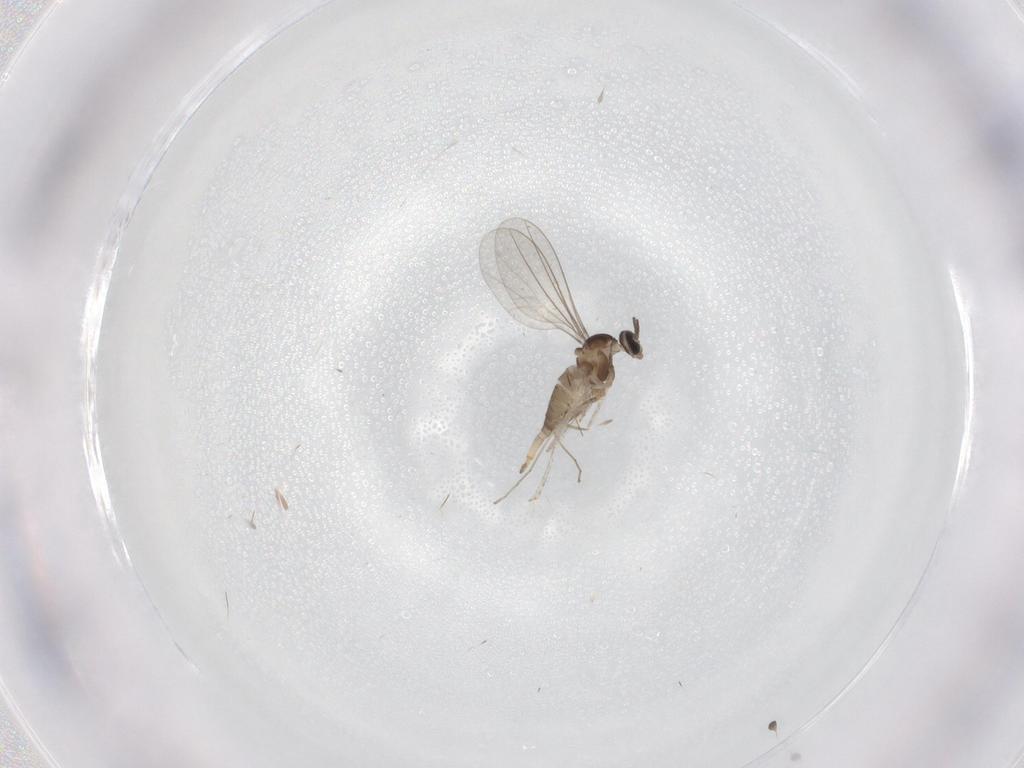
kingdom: Animalia
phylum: Arthropoda
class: Insecta
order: Diptera
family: Cecidomyiidae
